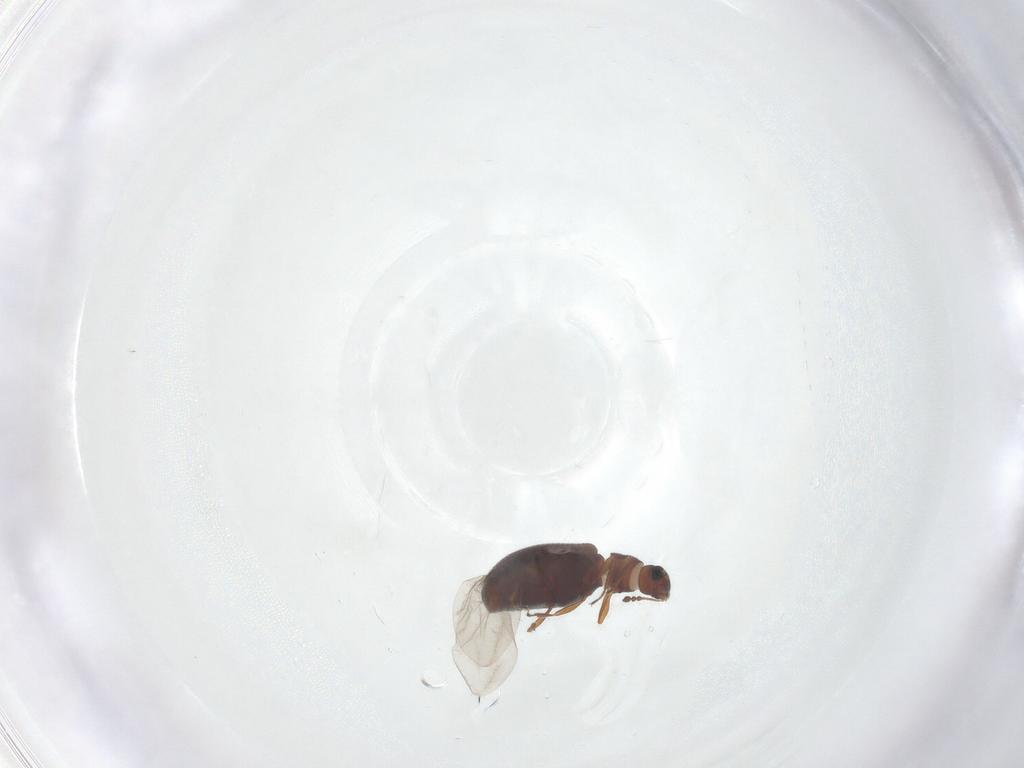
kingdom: Animalia
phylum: Arthropoda
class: Insecta
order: Coleoptera
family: Latridiidae
